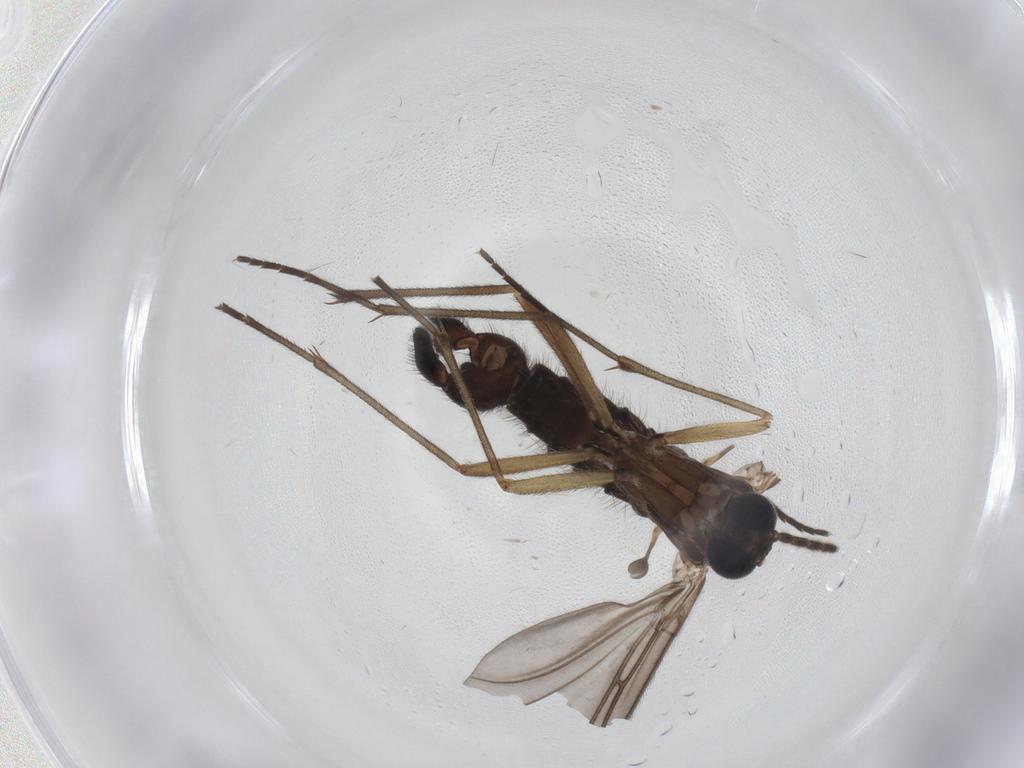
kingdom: Animalia
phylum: Arthropoda
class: Insecta
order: Diptera
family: Sciaridae
